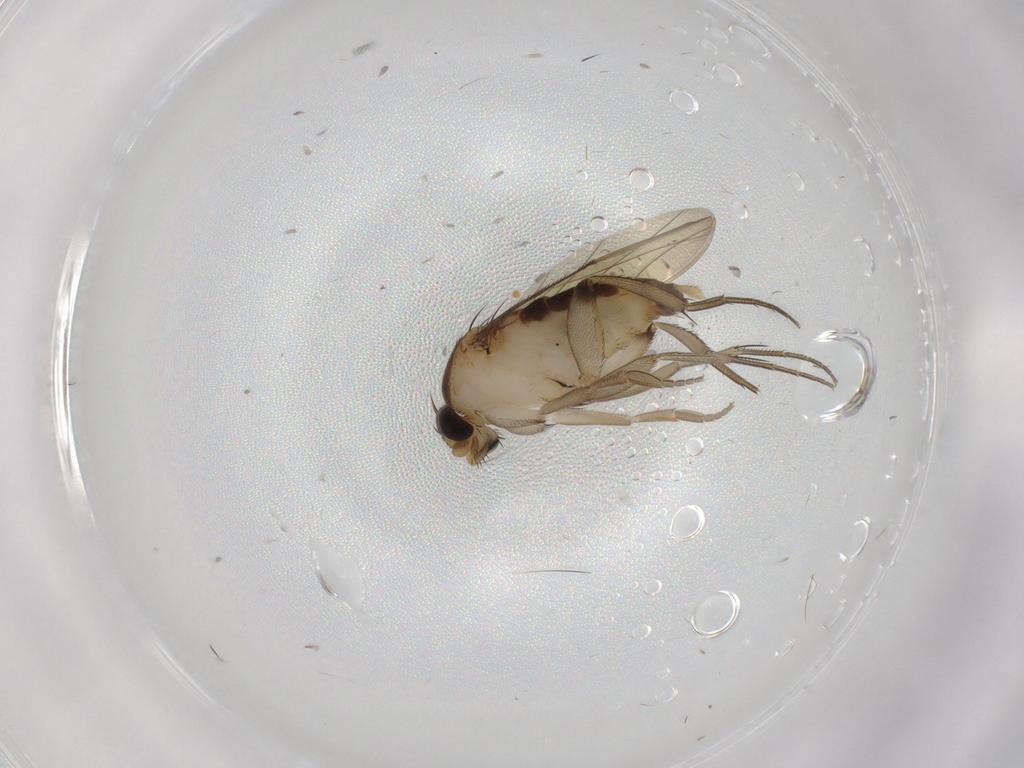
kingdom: Animalia
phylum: Arthropoda
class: Insecta
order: Diptera
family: Phoridae
